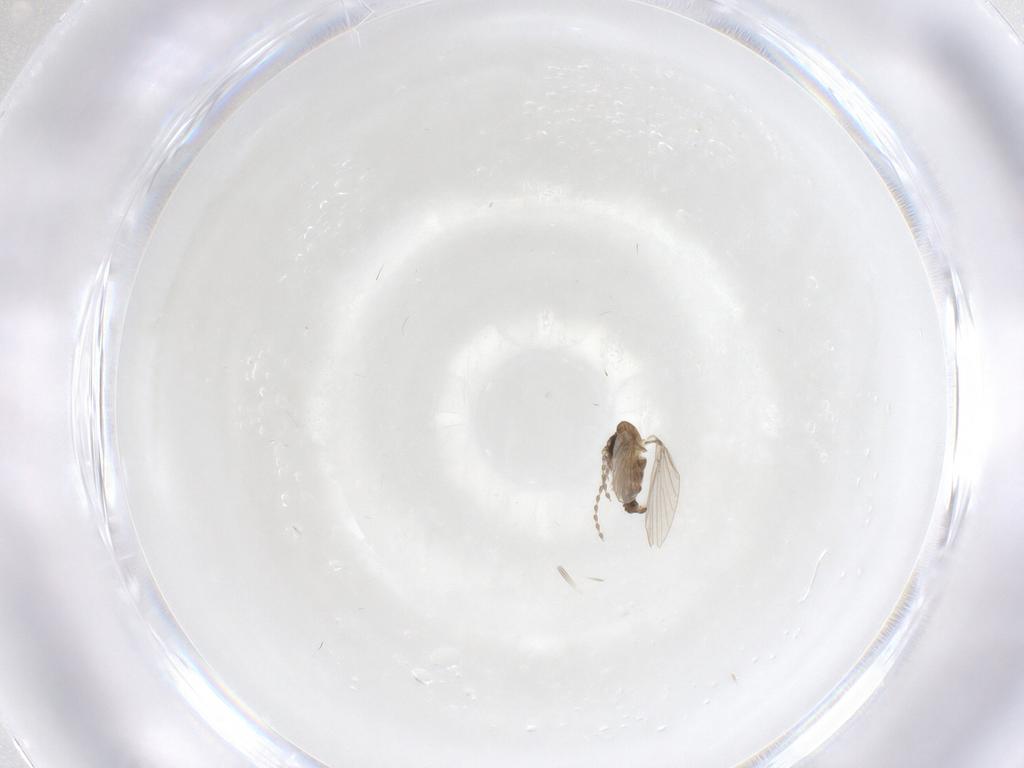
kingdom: Animalia
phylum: Arthropoda
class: Insecta
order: Diptera
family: Psychodidae
